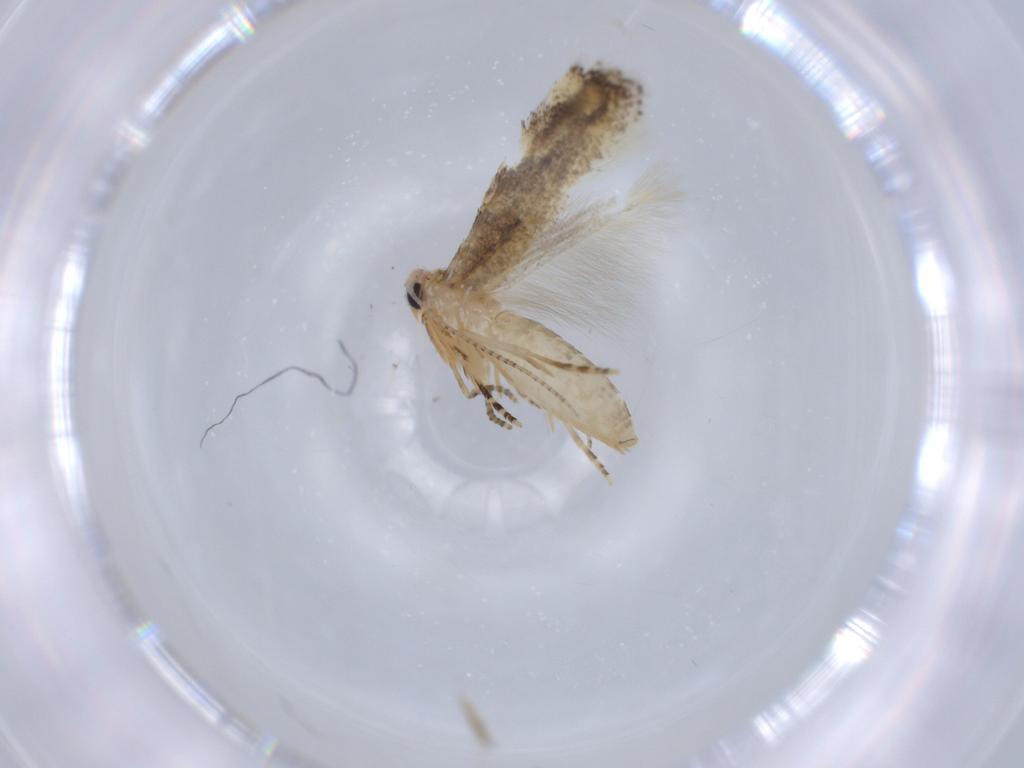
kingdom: Animalia
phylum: Arthropoda
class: Insecta
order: Lepidoptera
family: Bucculatricidae
